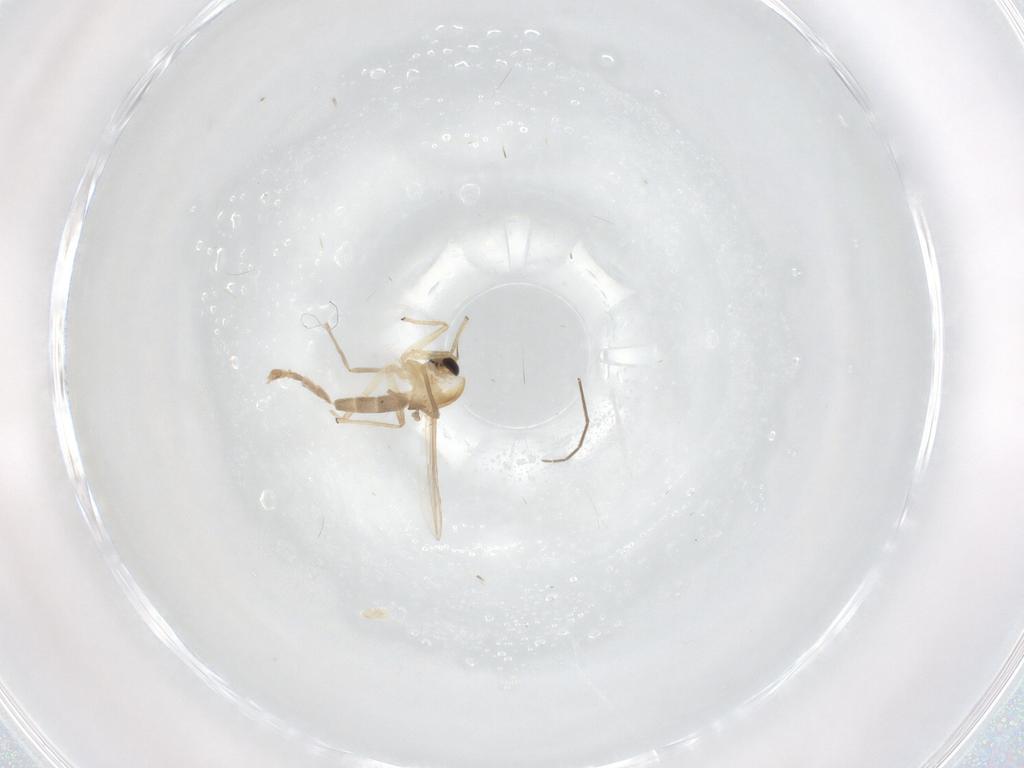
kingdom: Animalia
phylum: Arthropoda
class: Insecta
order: Diptera
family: Chironomidae
